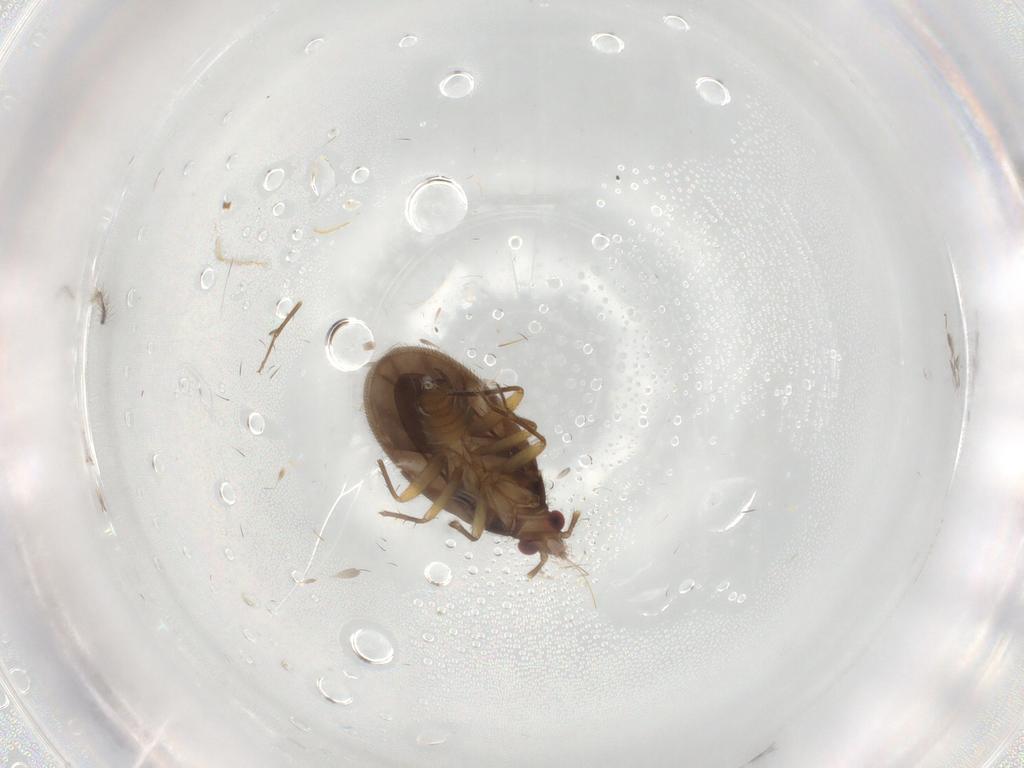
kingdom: Animalia
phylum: Arthropoda
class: Insecta
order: Hemiptera
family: Ceratocombidae
